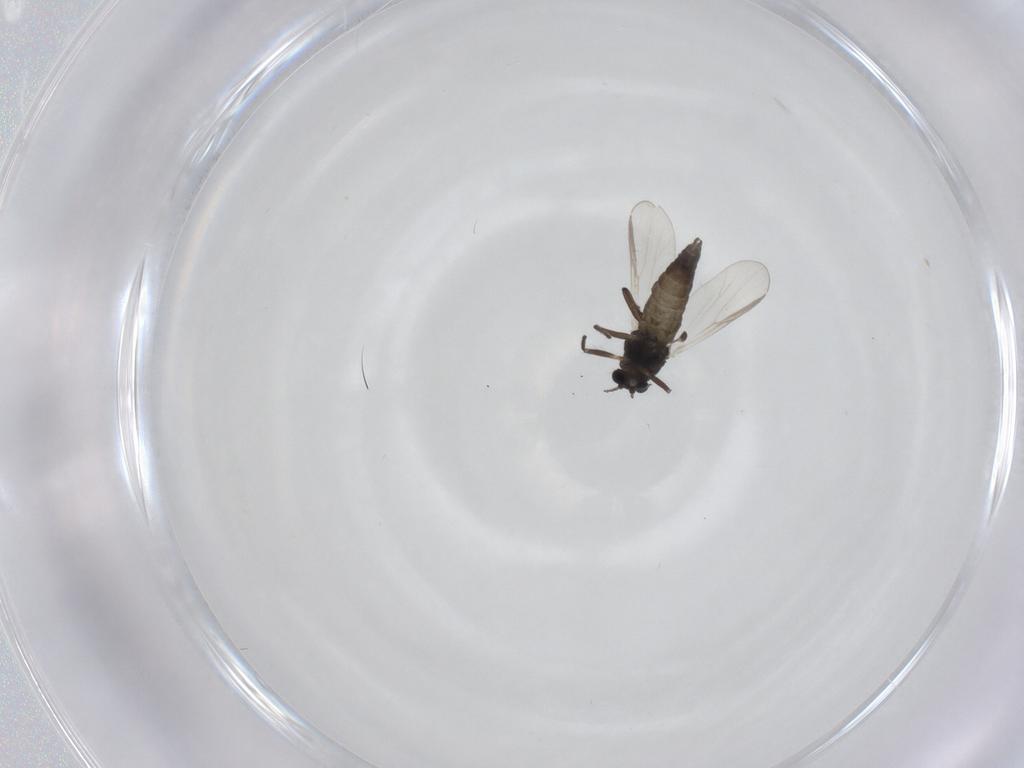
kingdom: Animalia
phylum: Arthropoda
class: Insecta
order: Diptera
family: Chironomidae
